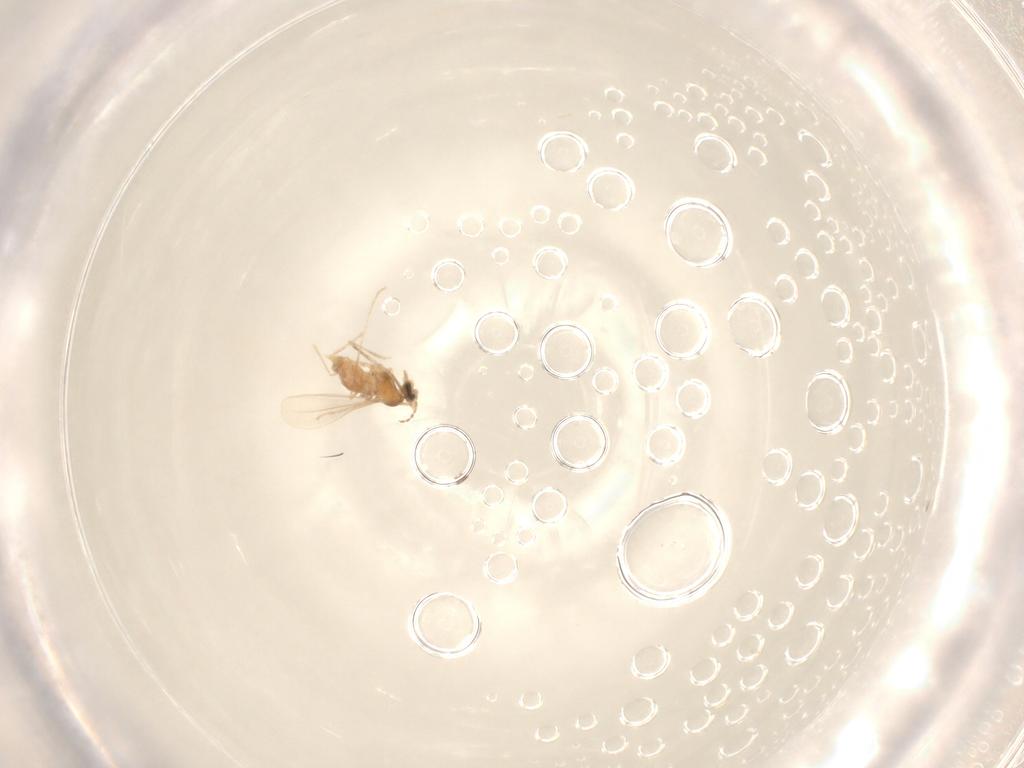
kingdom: Animalia
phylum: Arthropoda
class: Insecta
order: Diptera
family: Cecidomyiidae
